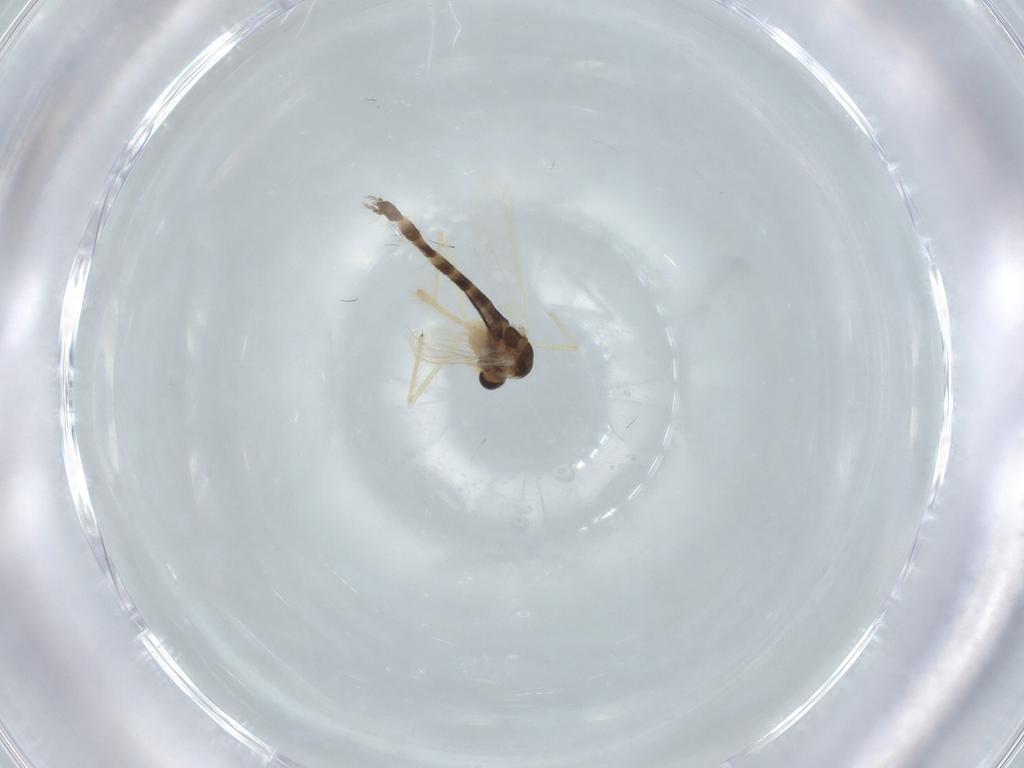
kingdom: Animalia
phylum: Arthropoda
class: Insecta
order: Diptera
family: Chironomidae
